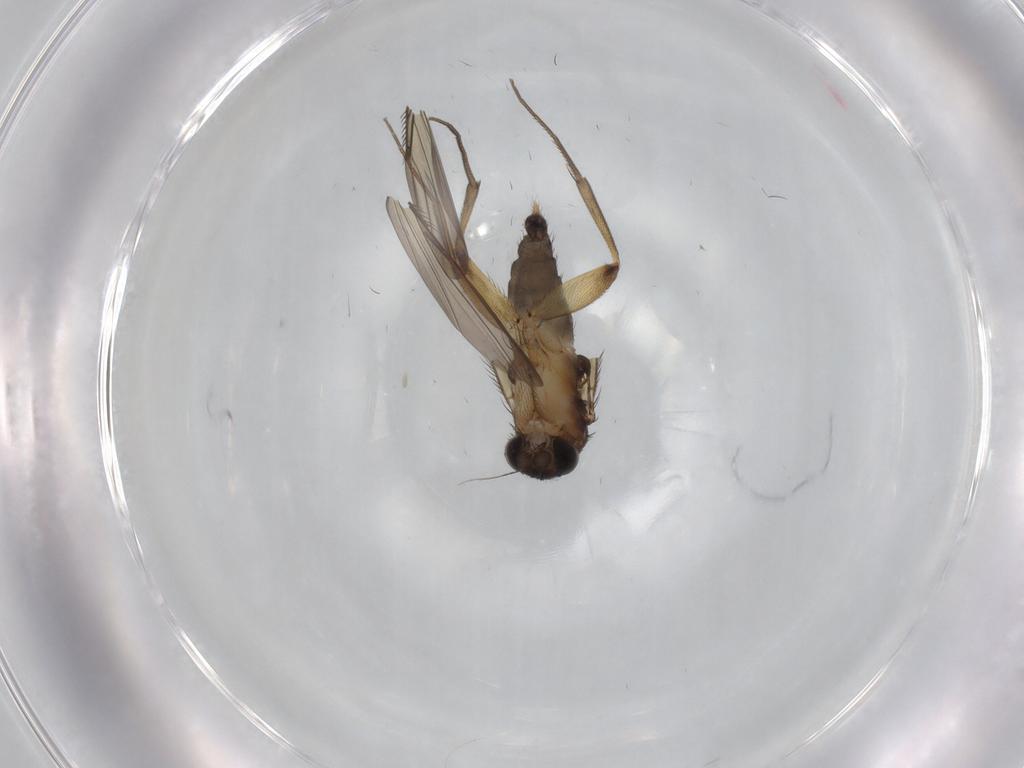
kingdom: Animalia
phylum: Arthropoda
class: Insecta
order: Diptera
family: Phoridae
